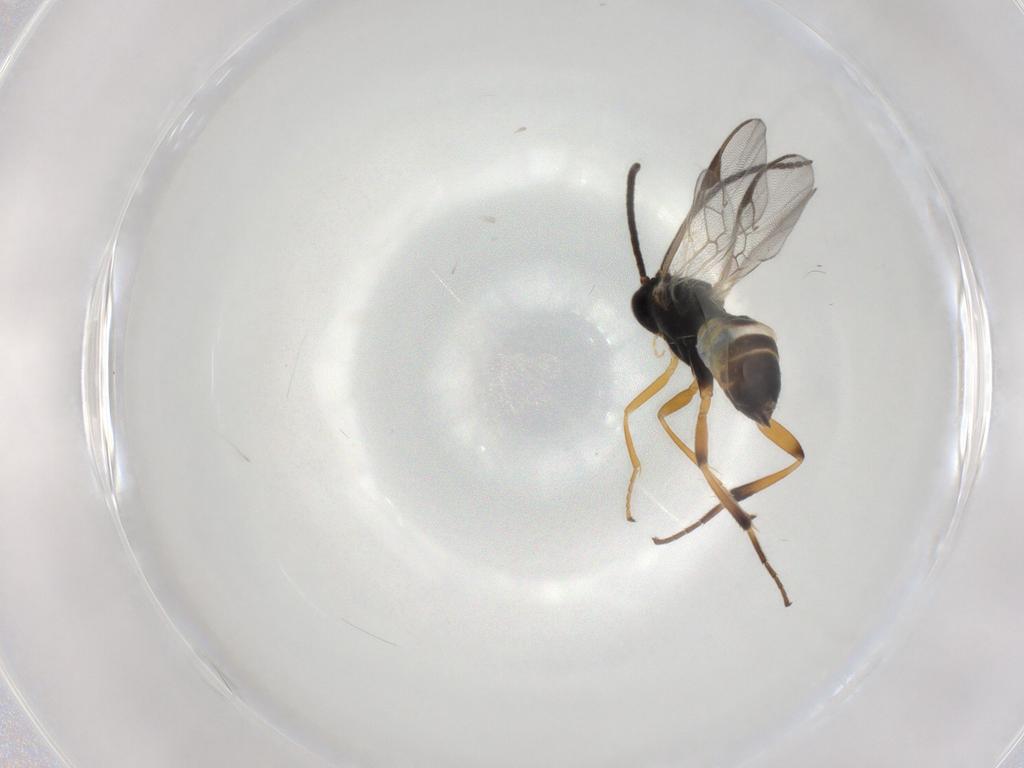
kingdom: Animalia
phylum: Arthropoda
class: Insecta
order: Hymenoptera
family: Braconidae
